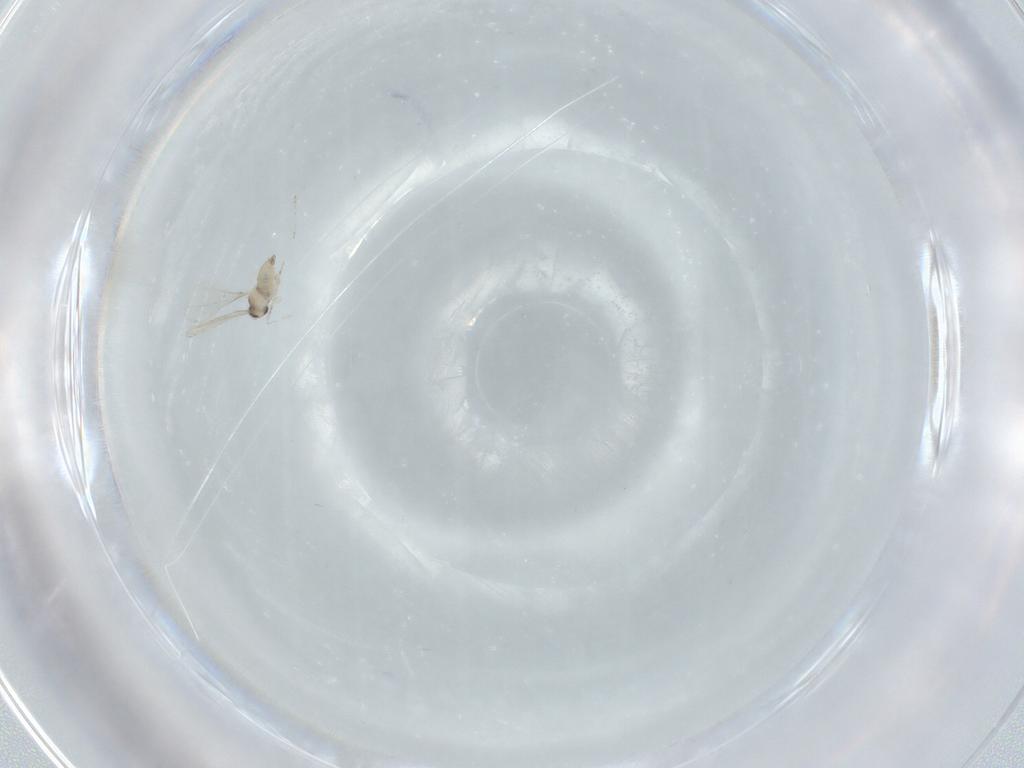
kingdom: Animalia
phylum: Arthropoda
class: Insecta
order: Diptera
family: Cecidomyiidae
